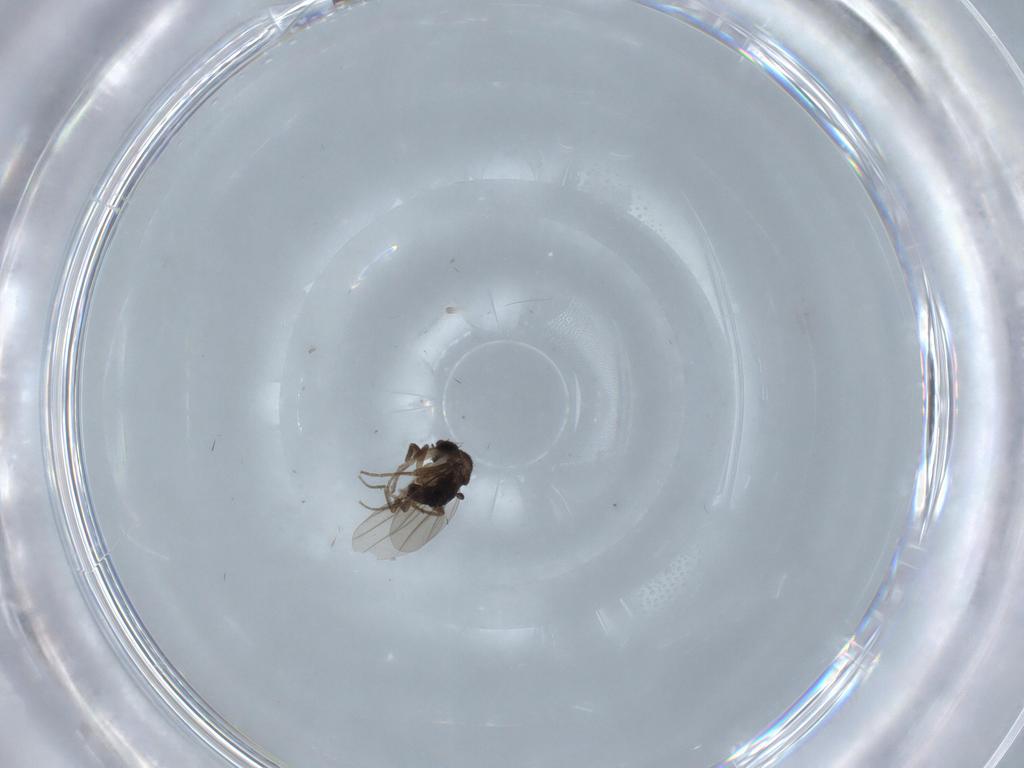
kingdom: Animalia
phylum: Arthropoda
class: Insecta
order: Diptera
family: Phoridae
